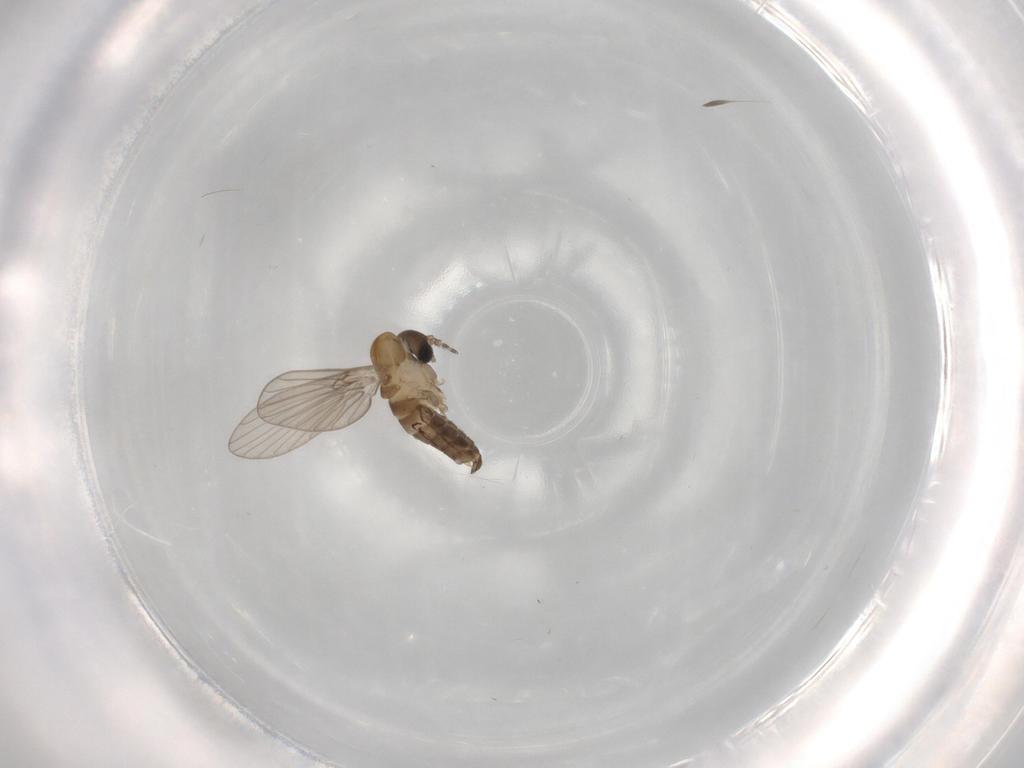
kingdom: Animalia
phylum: Arthropoda
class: Insecta
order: Diptera
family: Psychodidae
